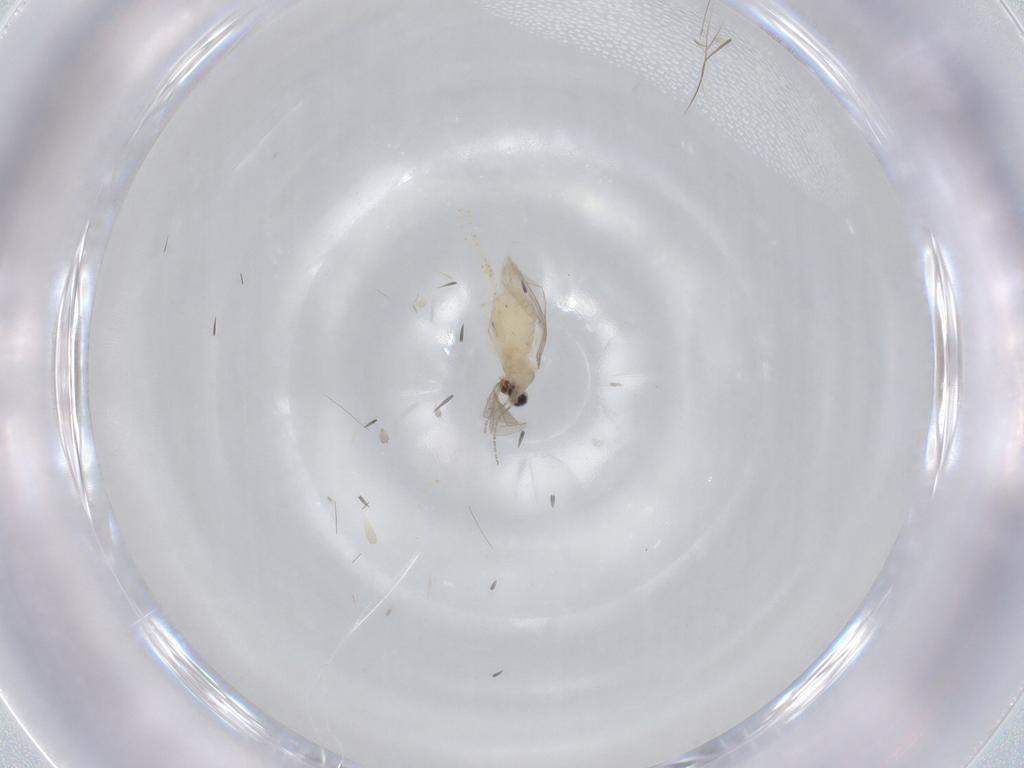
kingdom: Animalia
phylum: Arthropoda
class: Insecta
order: Diptera
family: Cecidomyiidae
